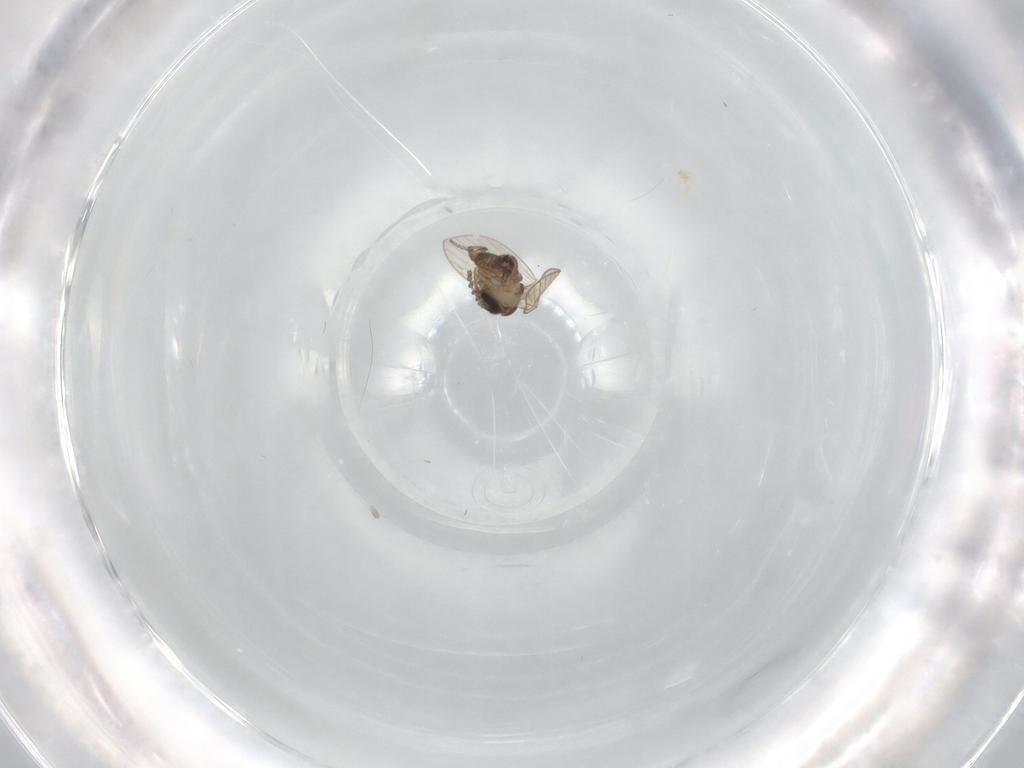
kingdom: Animalia
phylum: Arthropoda
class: Insecta
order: Diptera
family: Psychodidae
